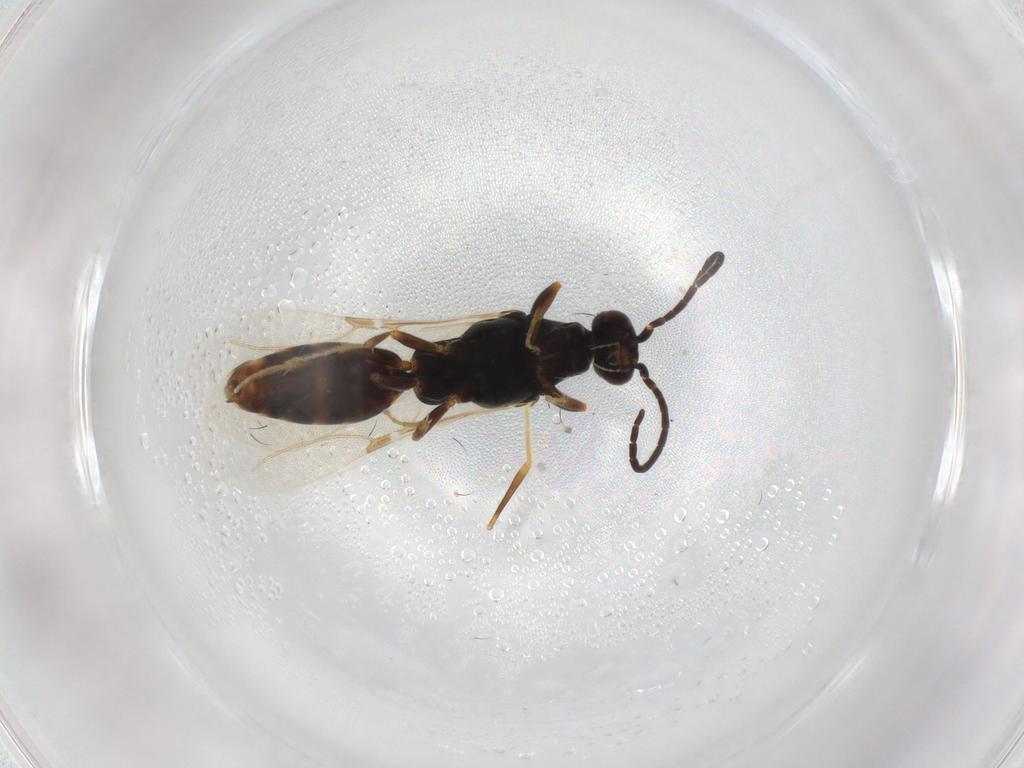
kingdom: Animalia
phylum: Arthropoda
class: Insecta
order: Hymenoptera
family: Bethylidae
